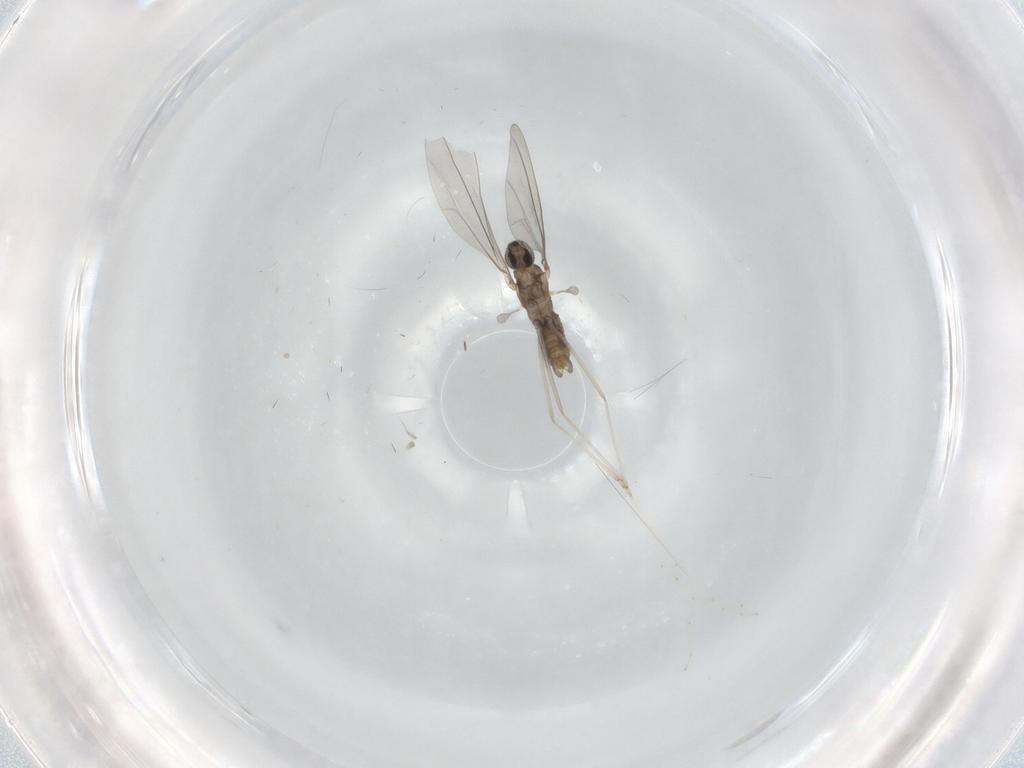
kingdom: Animalia
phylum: Arthropoda
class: Insecta
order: Diptera
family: Cecidomyiidae
